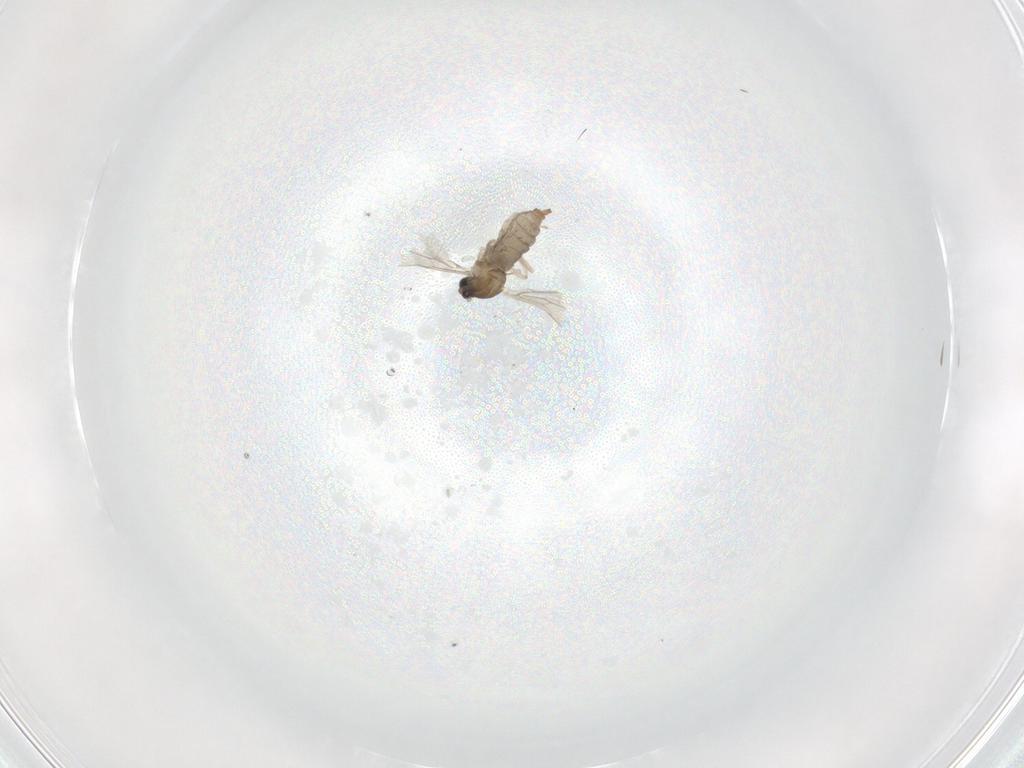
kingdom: Animalia
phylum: Arthropoda
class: Insecta
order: Diptera
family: Cecidomyiidae
